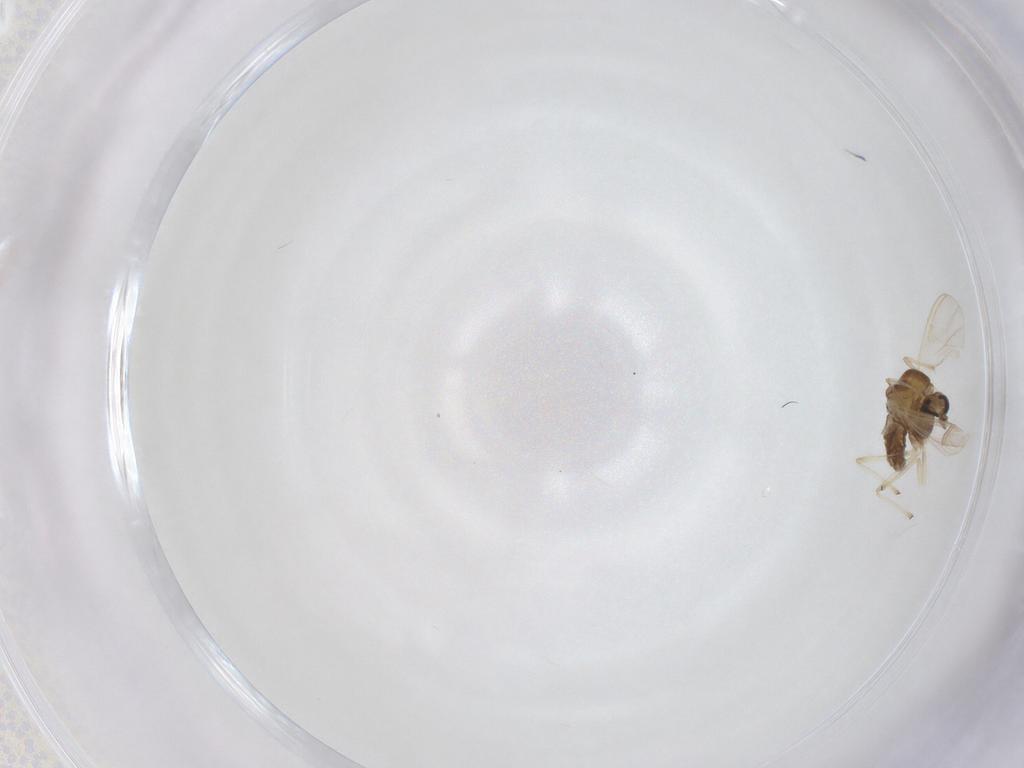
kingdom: Animalia
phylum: Arthropoda
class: Insecta
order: Diptera
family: Chironomidae
